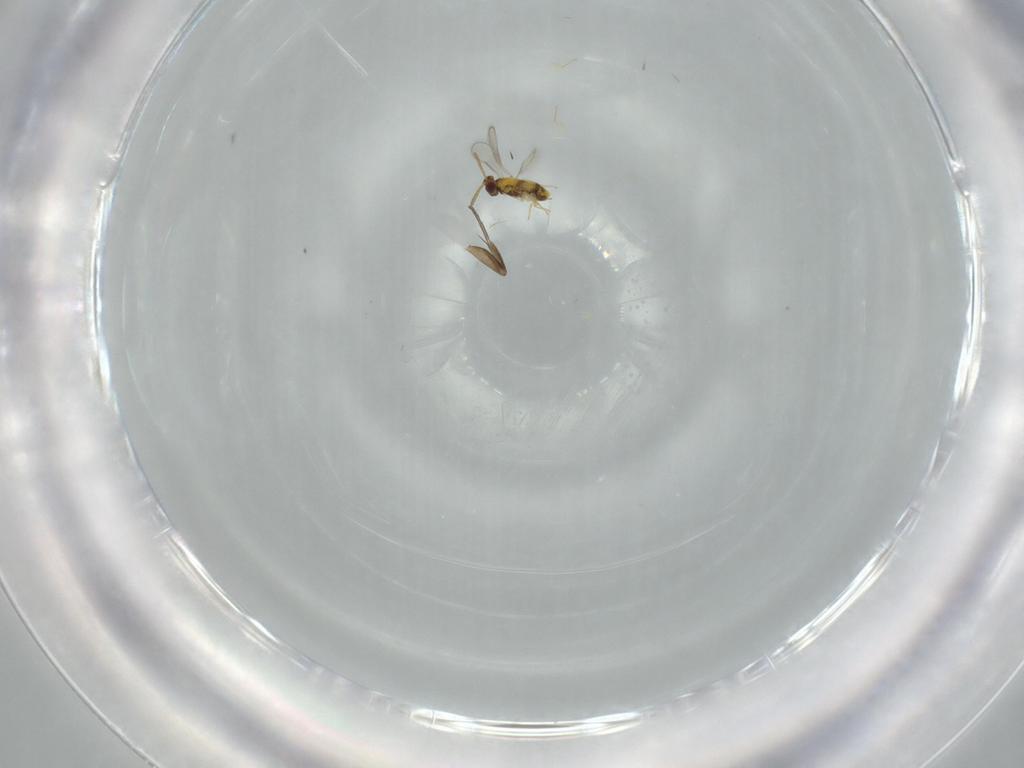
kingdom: Animalia
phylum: Arthropoda
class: Insecta
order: Hymenoptera
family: Aphelinidae
